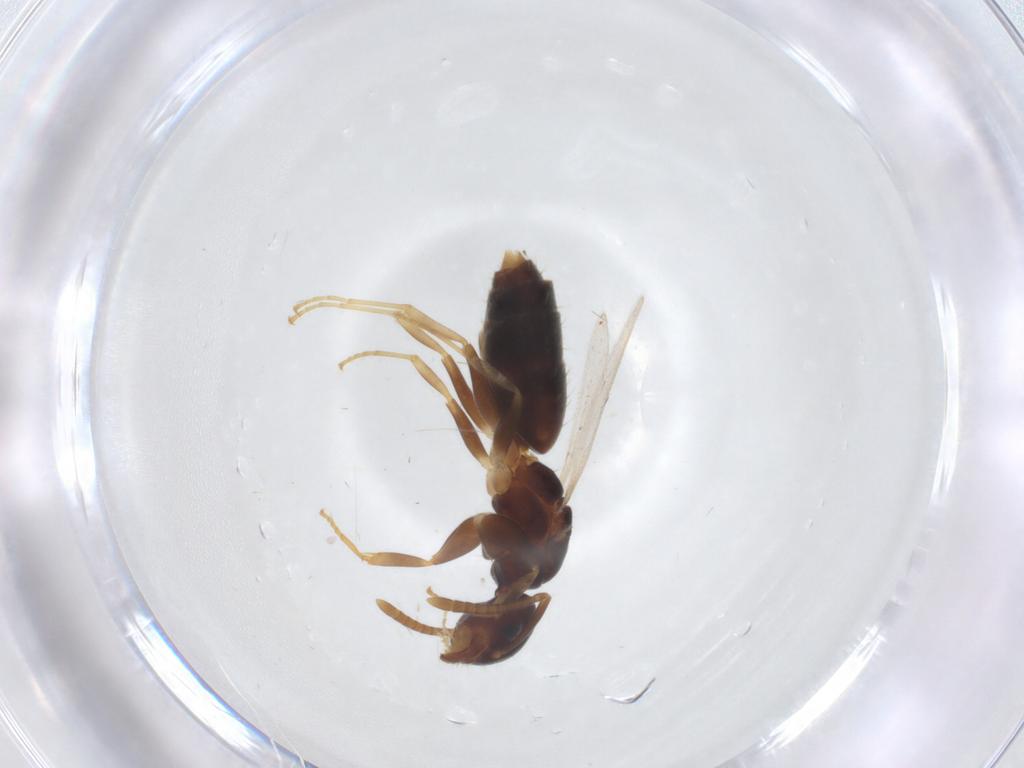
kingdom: Animalia
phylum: Arthropoda
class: Insecta
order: Hymenoptera
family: Formicidae
